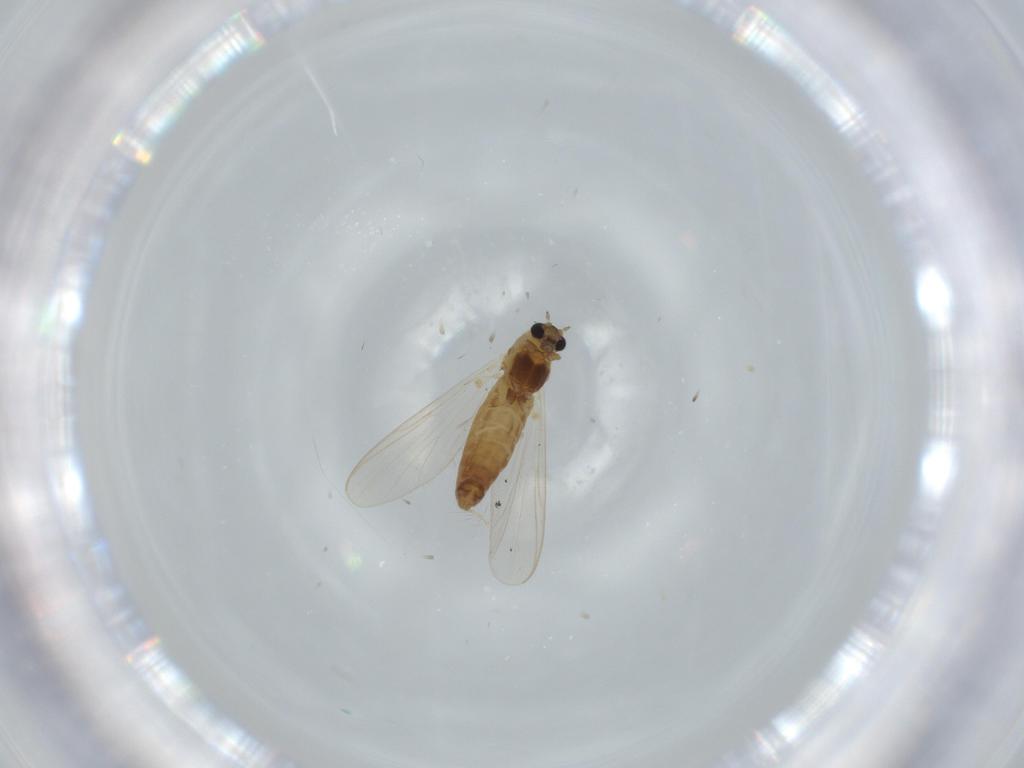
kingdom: Animalia
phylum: Arthropoda
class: Insecta
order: Diptera
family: Chironomidae
